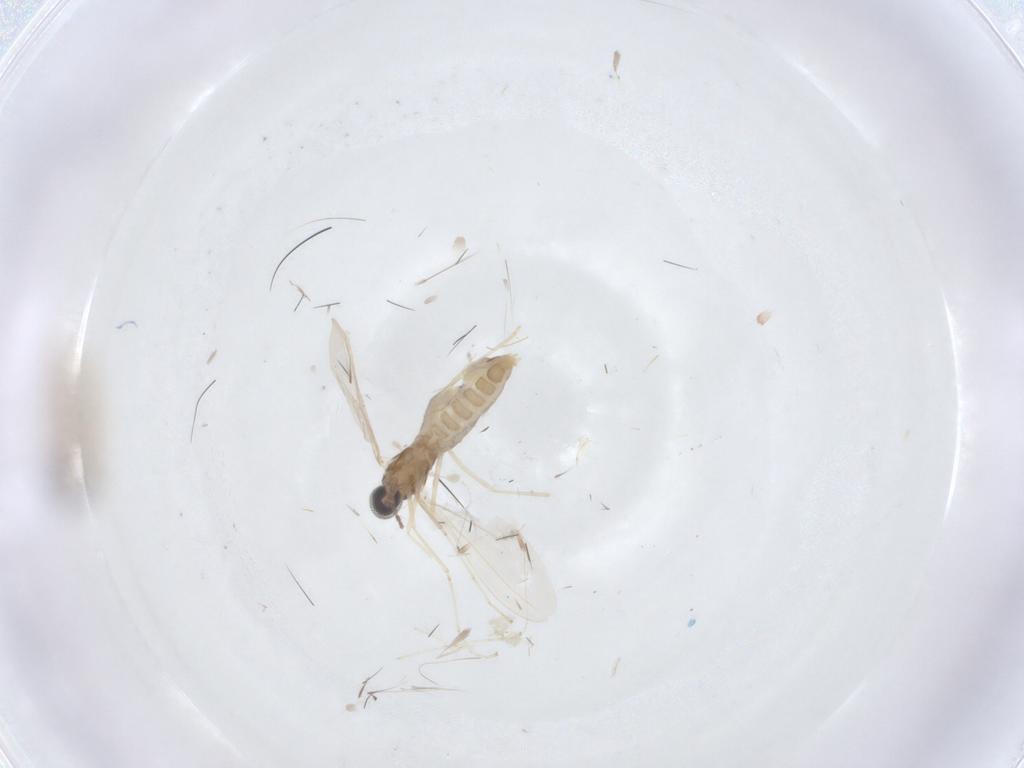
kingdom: Animalia
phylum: Arthropoda
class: Insecta
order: Diptera
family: Cecidomyiidae
